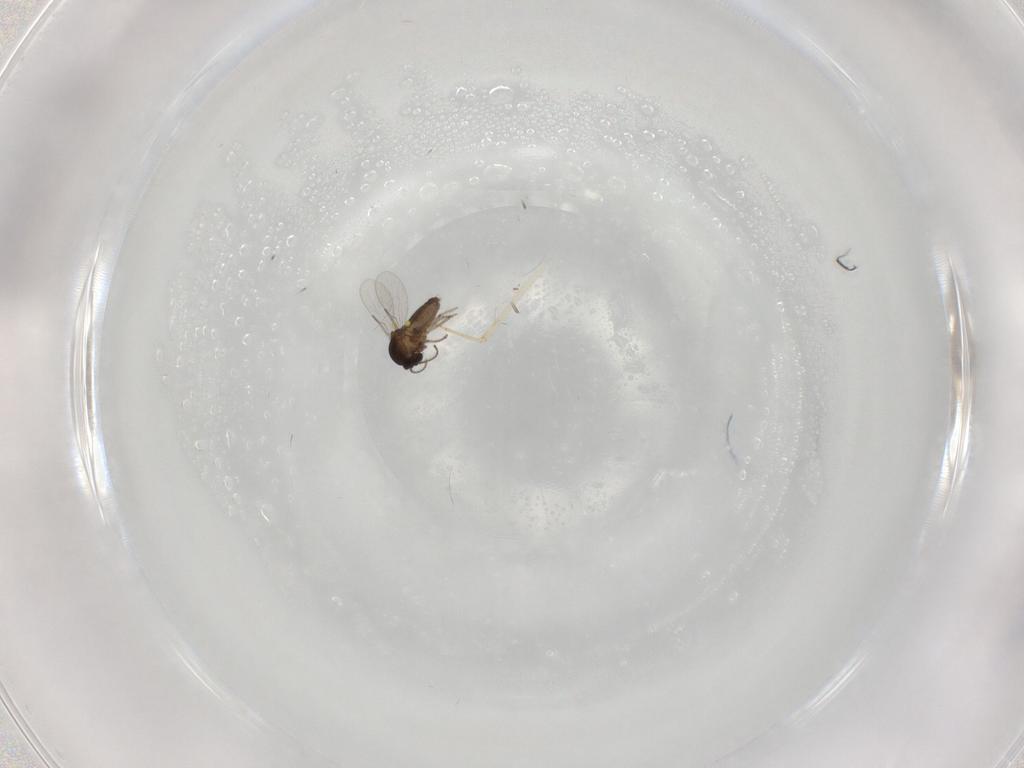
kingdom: Animalia
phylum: Arthropoda
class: Insecta
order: Diptera
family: Ceratopogonidae
